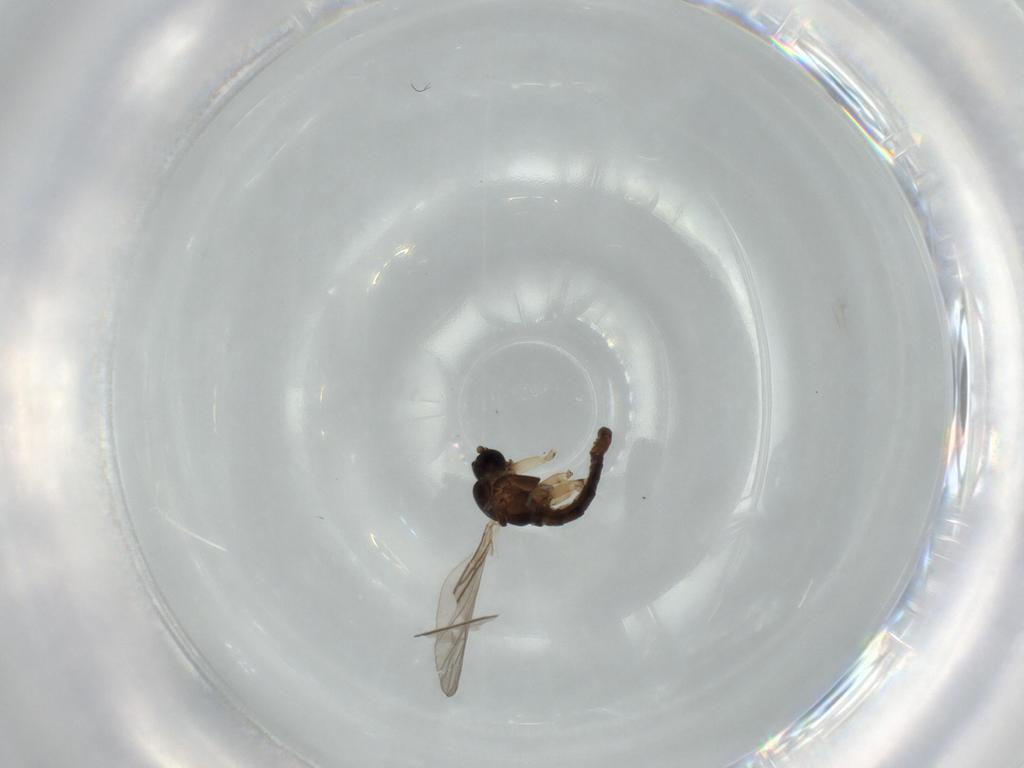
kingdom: Animalia
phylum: Arthropoda
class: Insecta
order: Diptera
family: Sciaridae
